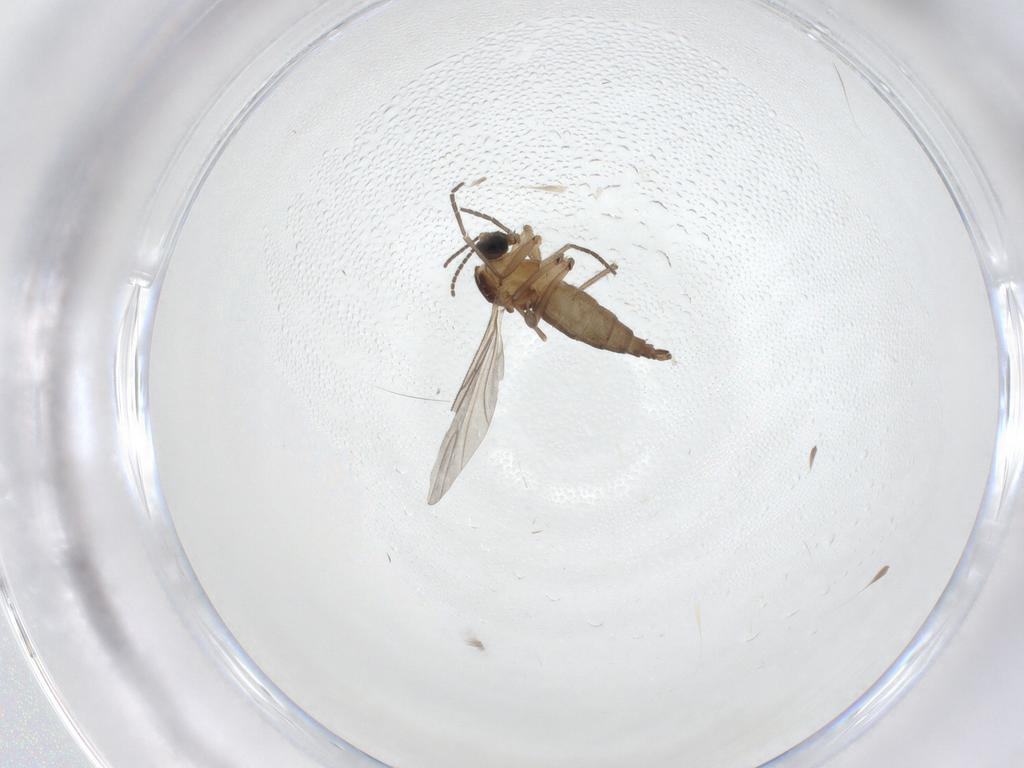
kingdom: Animalia
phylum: Arthropoda
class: Insecta
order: Diptera
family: Sciaridae
